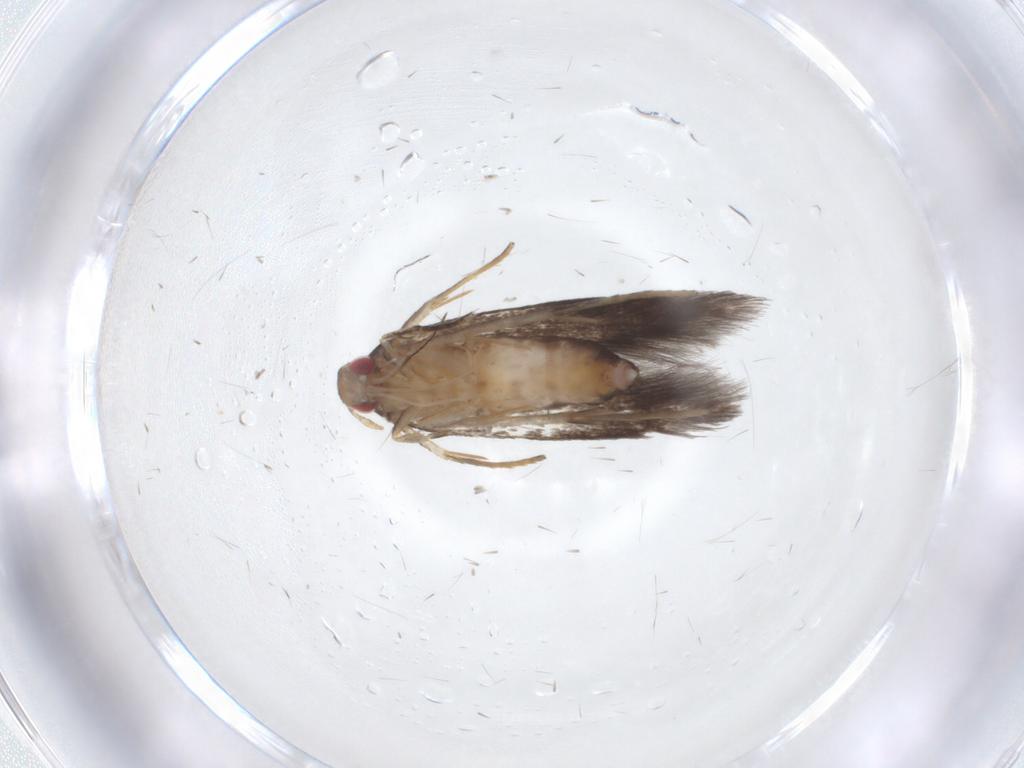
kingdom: Animalia
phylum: Arthropoda
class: Insecta
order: Lepidoptera
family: Cosmopterigidae
